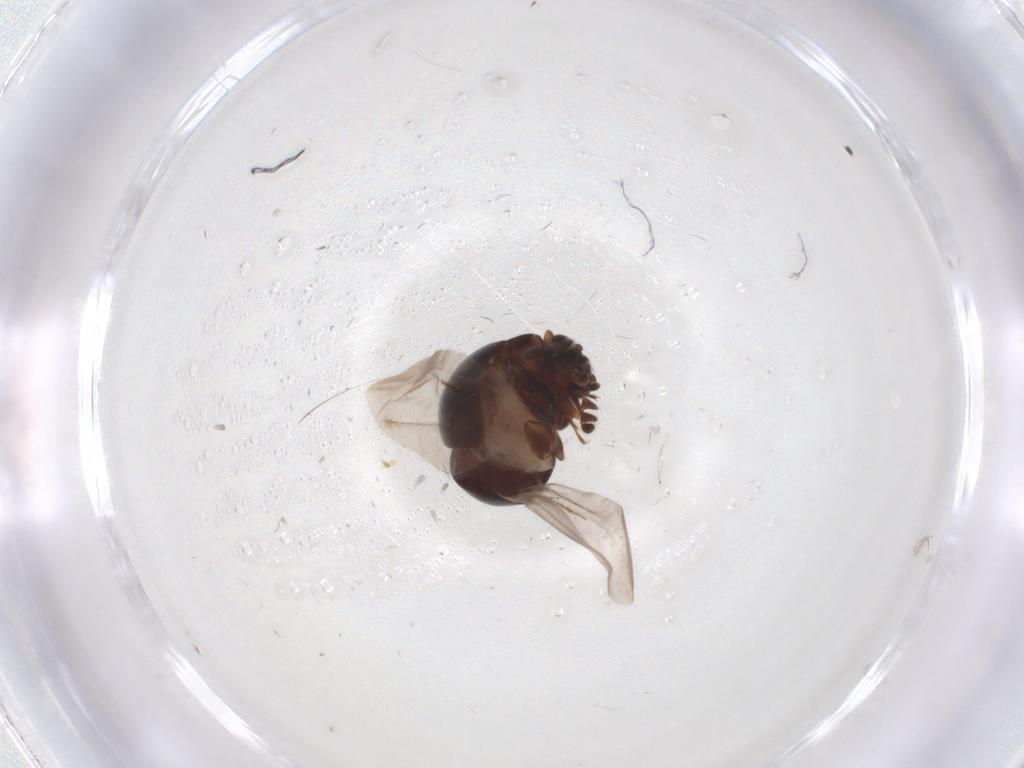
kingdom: Animalia
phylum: Arthropoda
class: Insecta
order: Coleoptera
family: Anamorphidae
